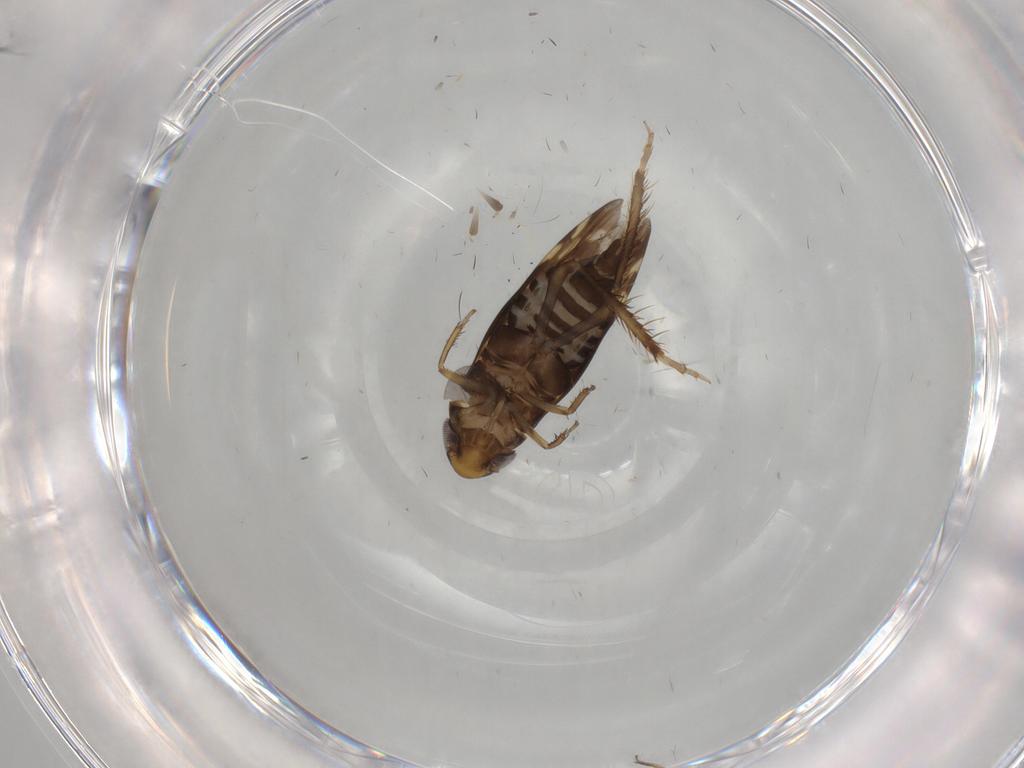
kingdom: Animalia
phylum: Arthropoda
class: Insecta
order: Hemiptera
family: Cicadellidae
